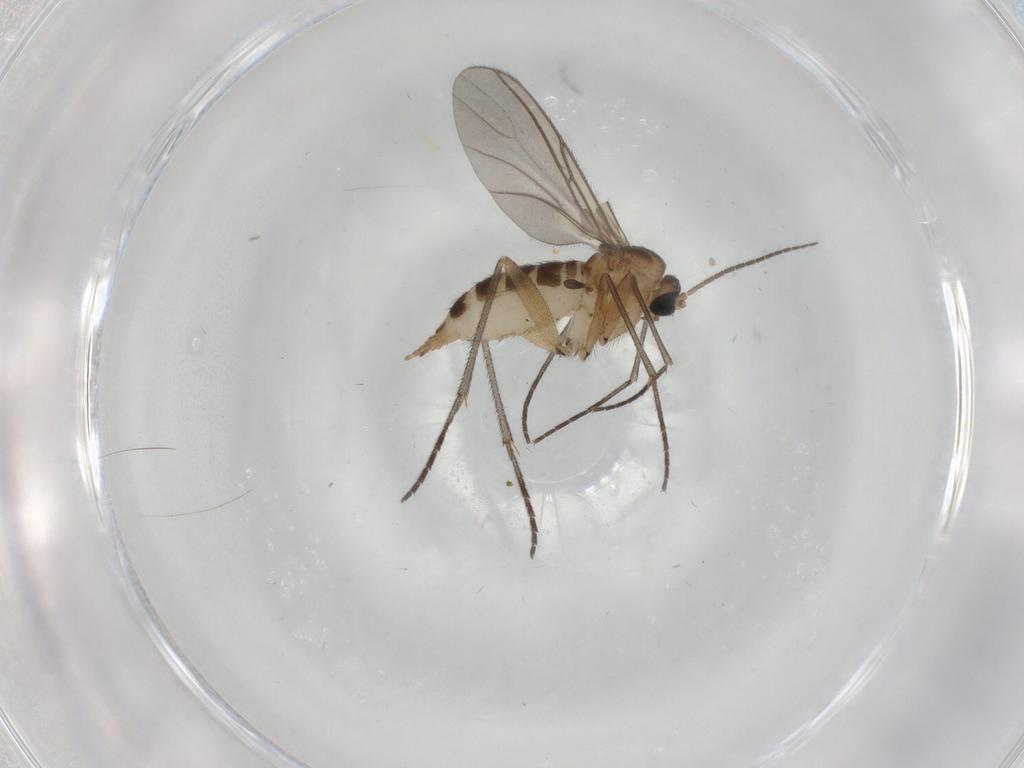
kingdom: Animalia
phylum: Arthropoda
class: Insecta
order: Diptera
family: Sciaridae
